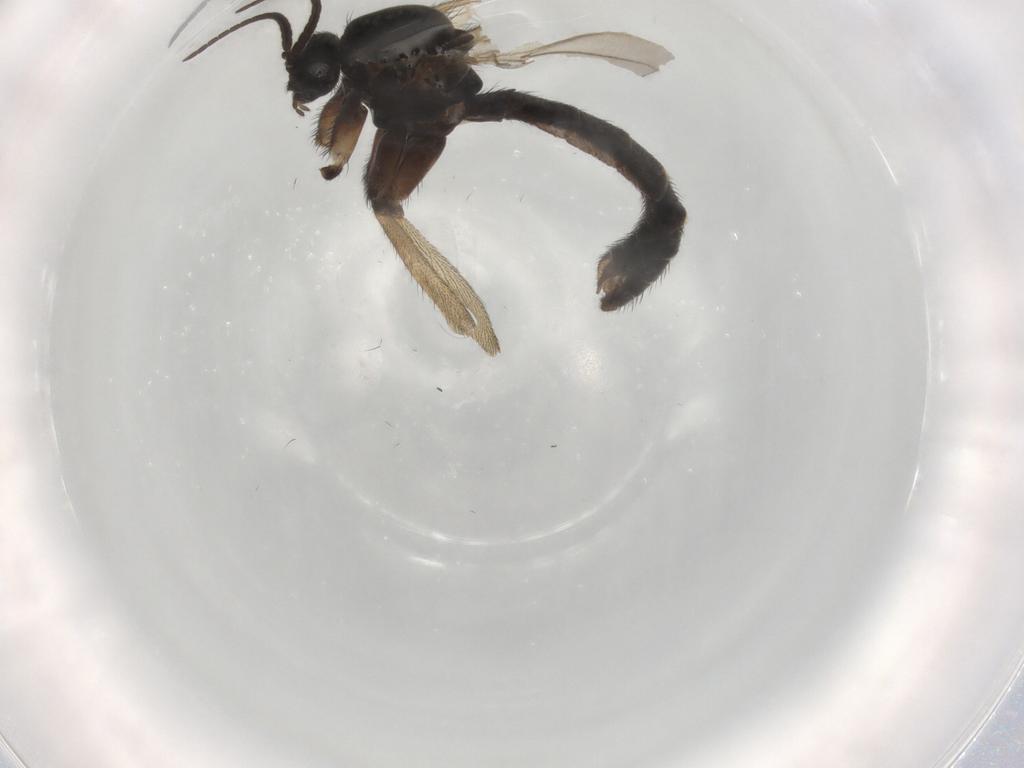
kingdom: Animalia
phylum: Arthropoda
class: Insecta
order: Diptera
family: Keroplatidae
